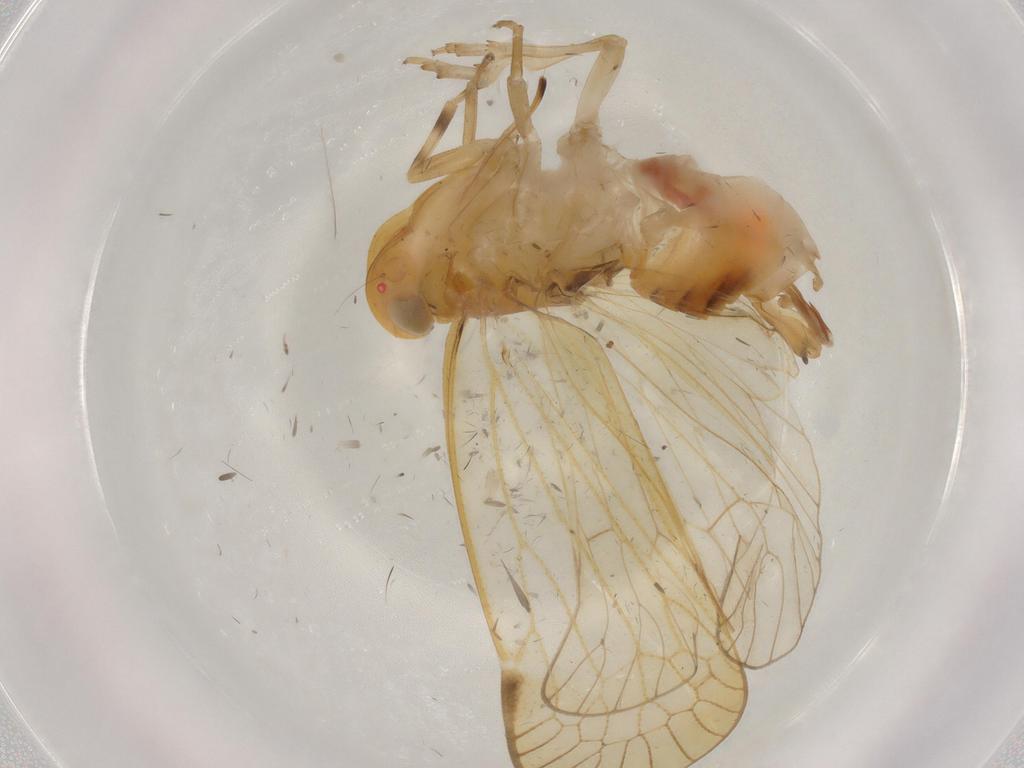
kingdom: Animalia
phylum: Arthropoda
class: Insecta
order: Hemiptera
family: Cixiidae
